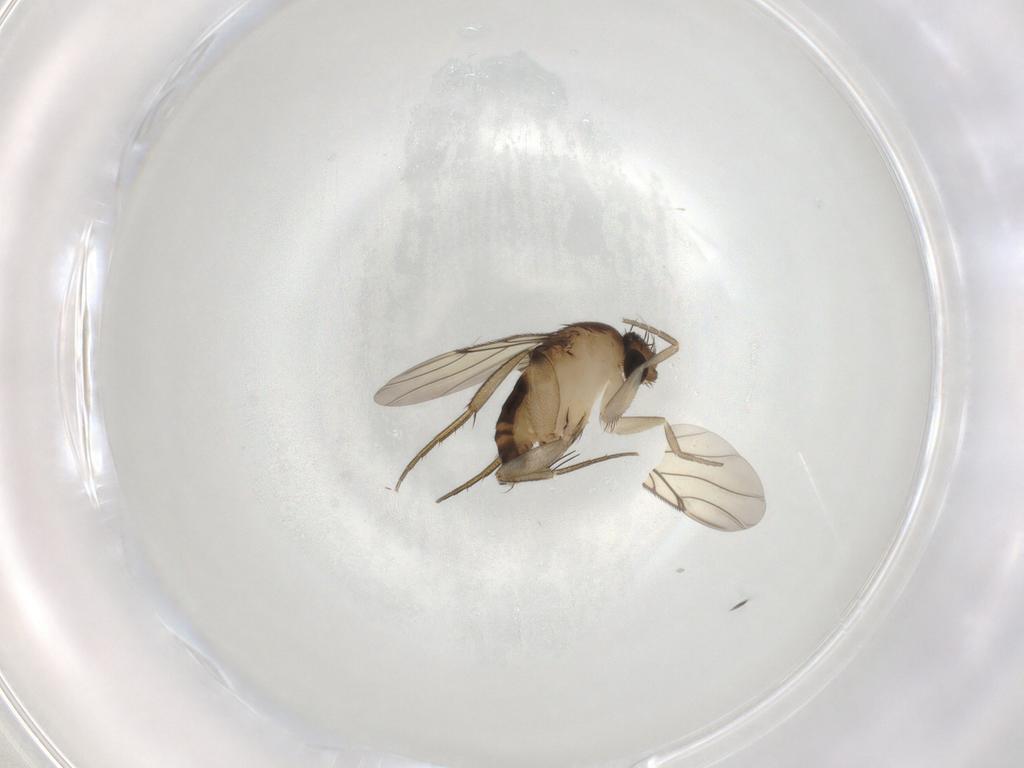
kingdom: Animalia
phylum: Arthropoda
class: Insecta
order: Diptera
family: Phoridae
